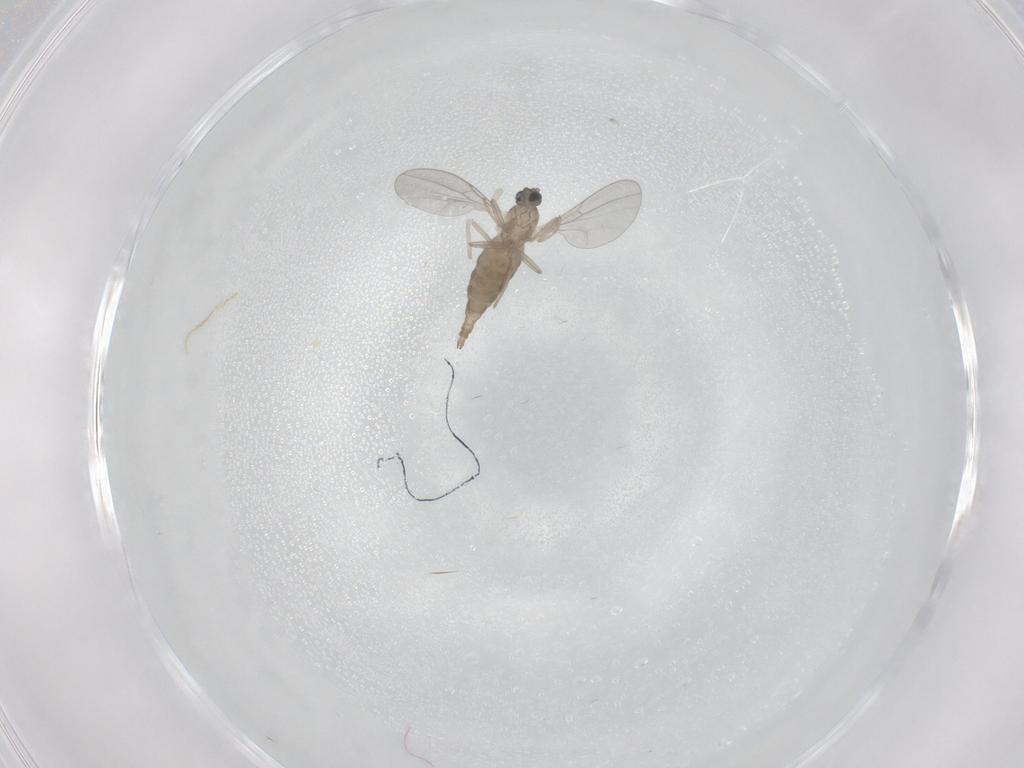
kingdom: Animalia
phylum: Arthropoda
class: Insecta
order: Diptera
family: Cecidomyiidae
